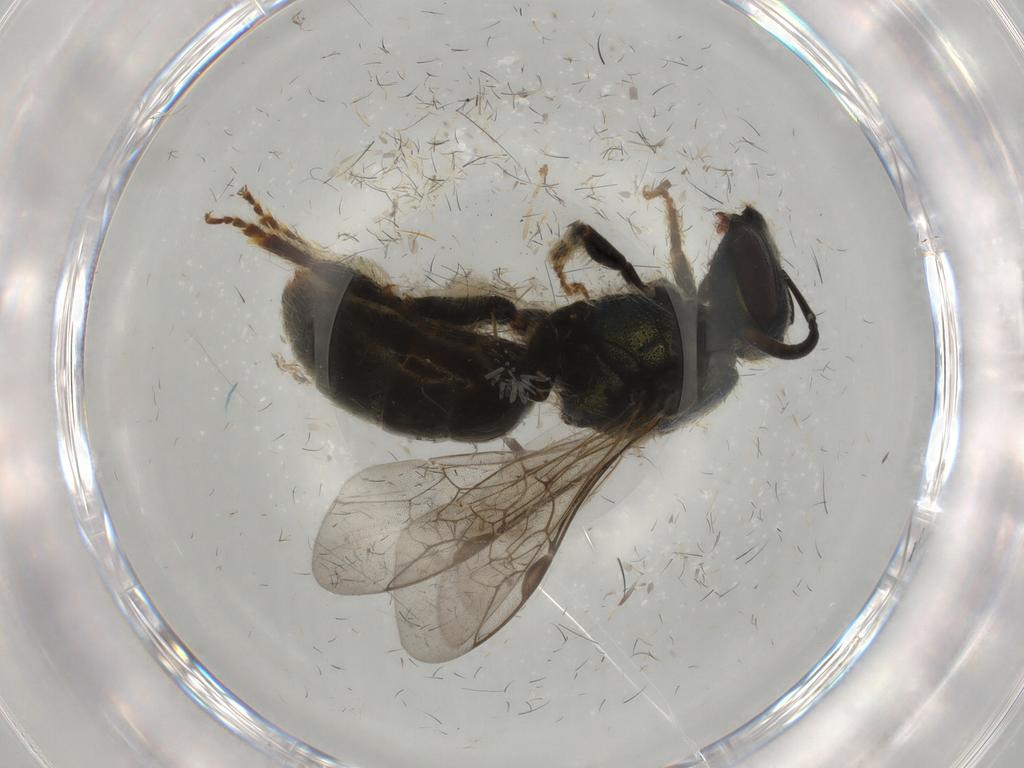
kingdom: Animalia
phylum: Arthropoda
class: Insecta
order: Hymenoptera
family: Halictidae
